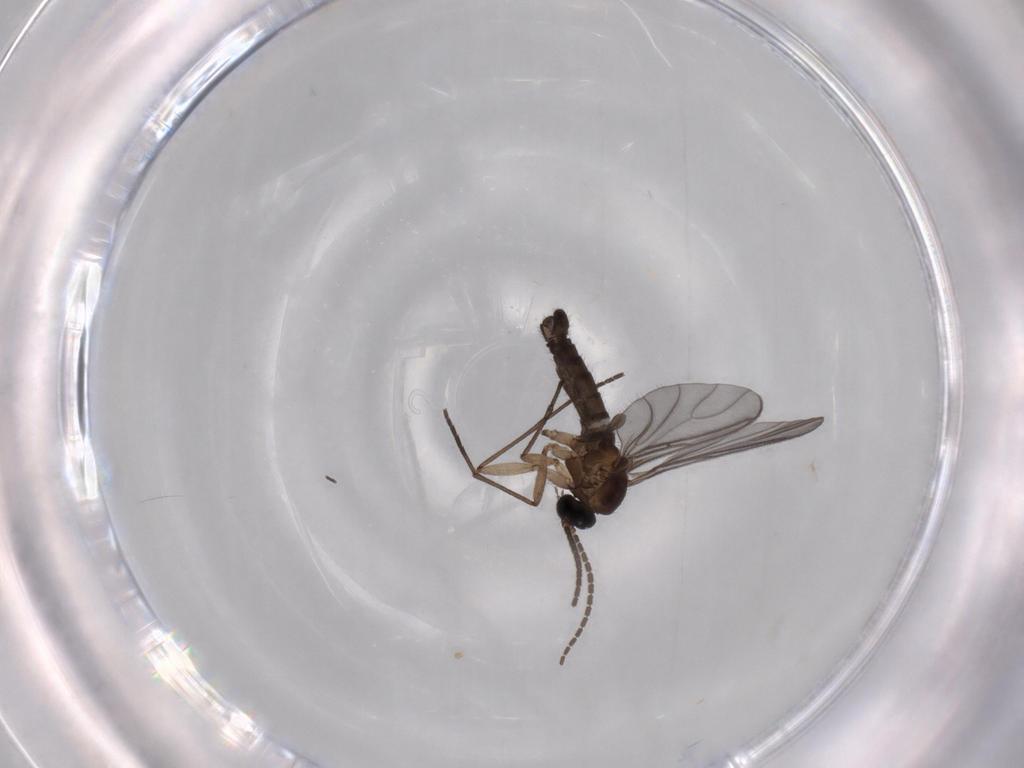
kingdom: Animalia
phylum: Arthropoda
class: Insecta
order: Diptera
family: Sciaridae
